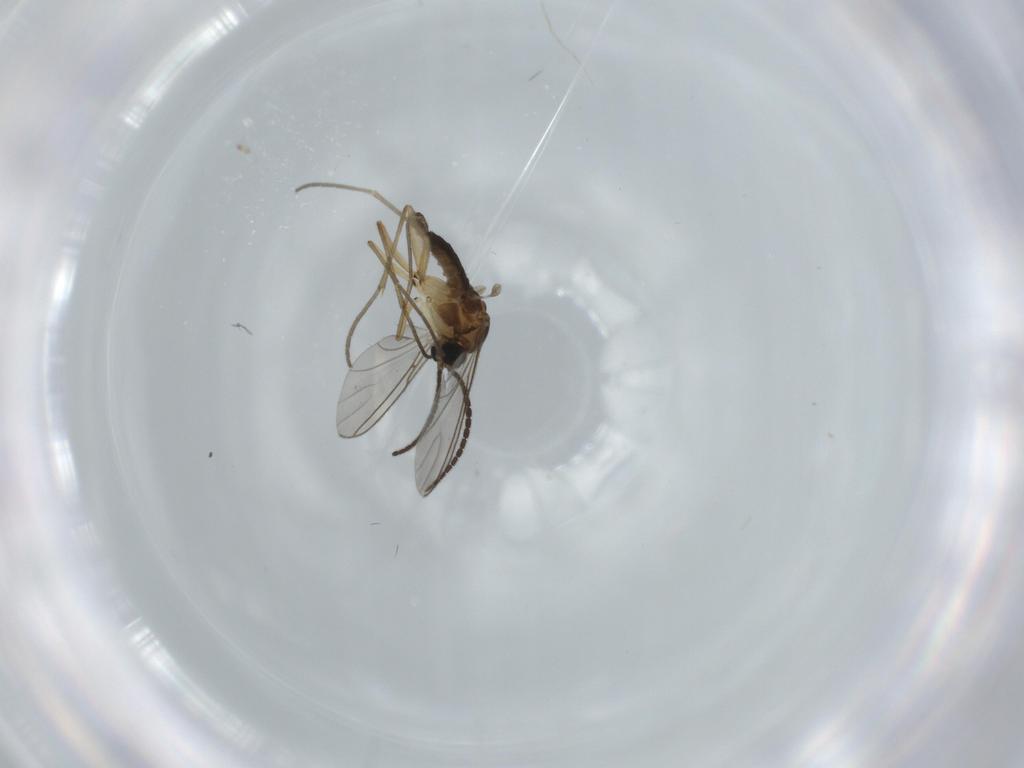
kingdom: Animalia
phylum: Arthropoda
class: Insecta
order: Diptera
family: Dolichopodidae
